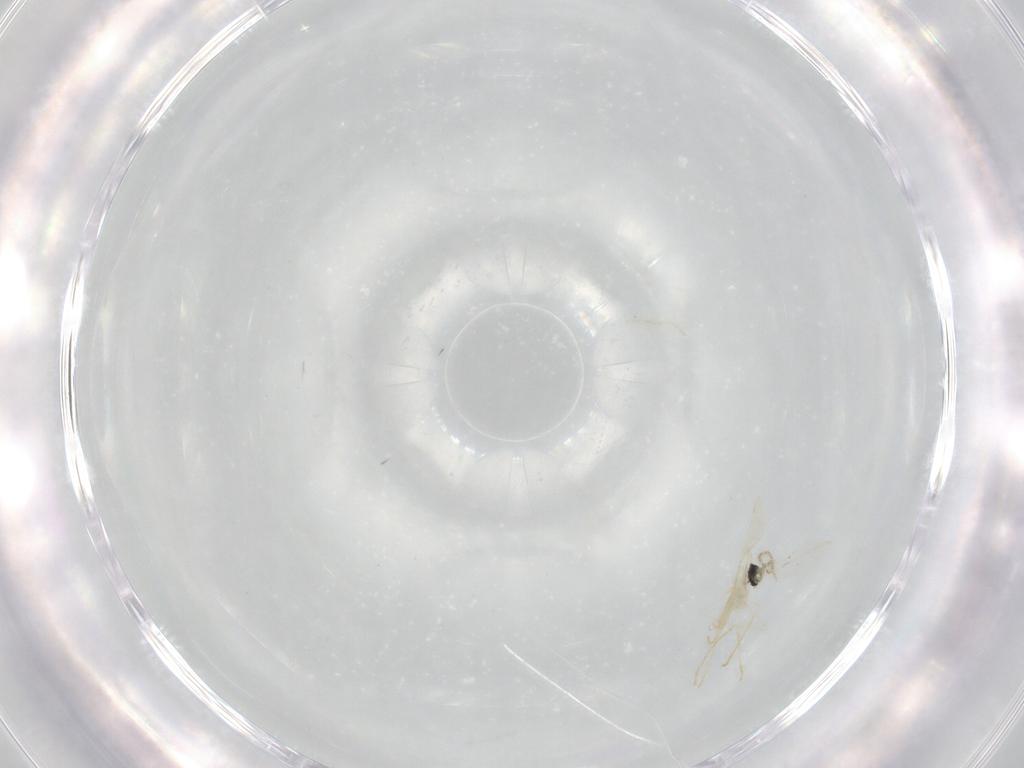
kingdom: Animalia
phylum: Arthropoda
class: Insecta
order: Diptera
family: Cecidomyiidae
